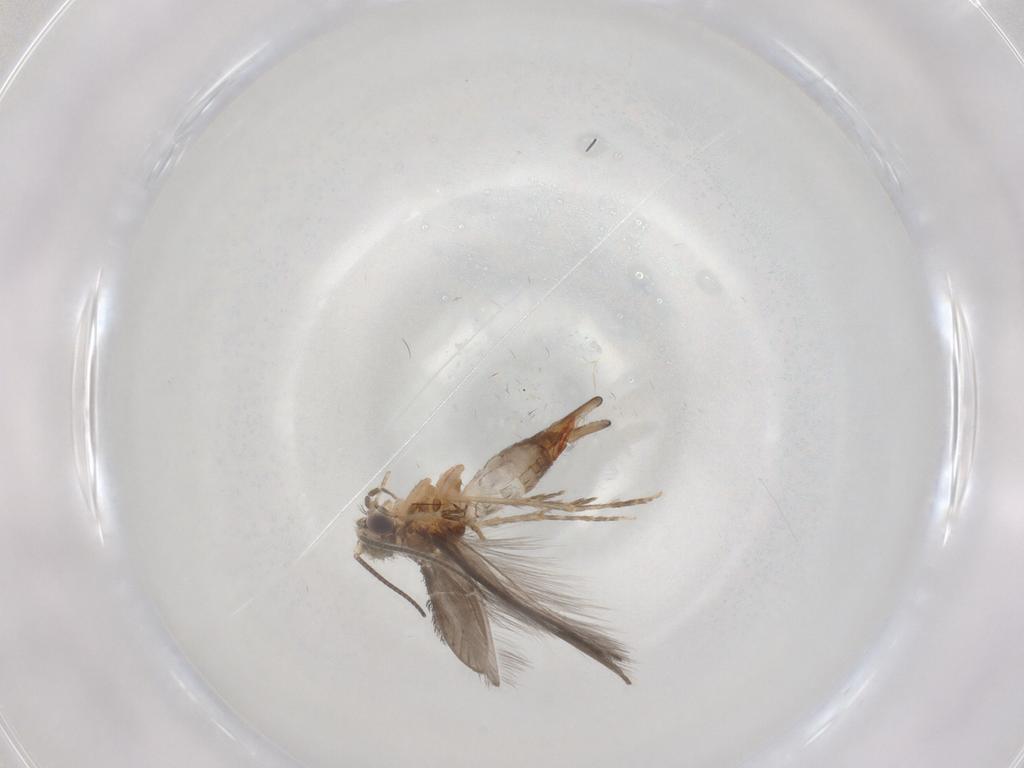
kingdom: Animalia
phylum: Arthropoda
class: Insecta
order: Trichoptera
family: Hydroptilidae
